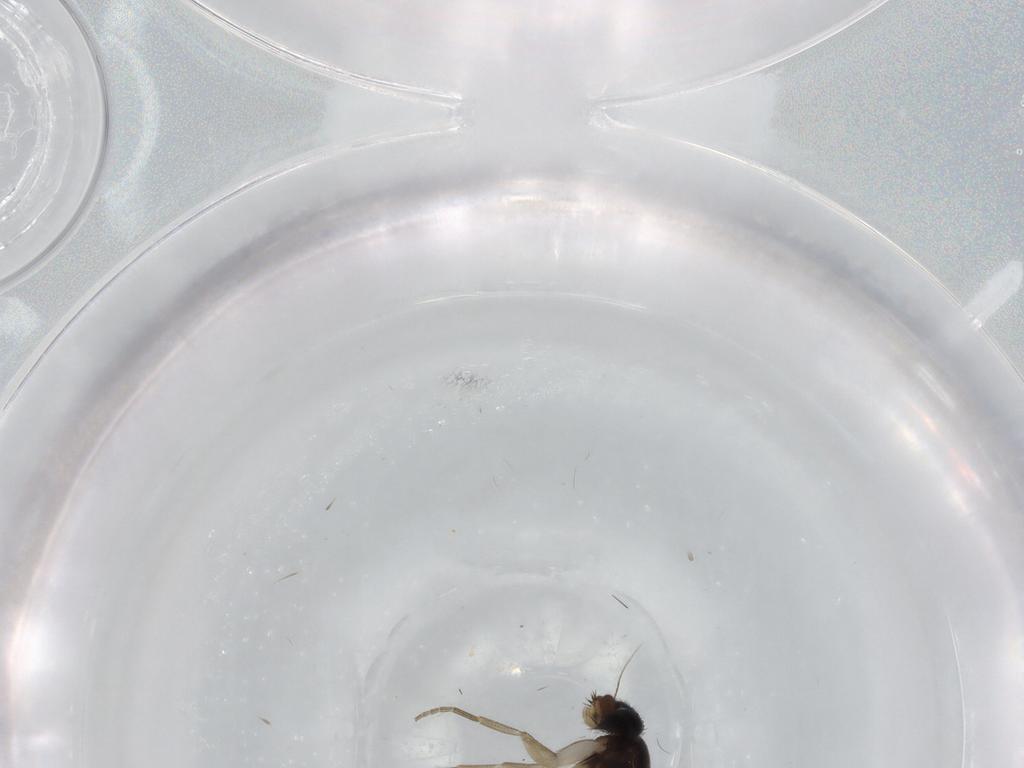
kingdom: Animalia
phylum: Arthropoda
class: Insecta
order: Diptera
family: Phoridae
